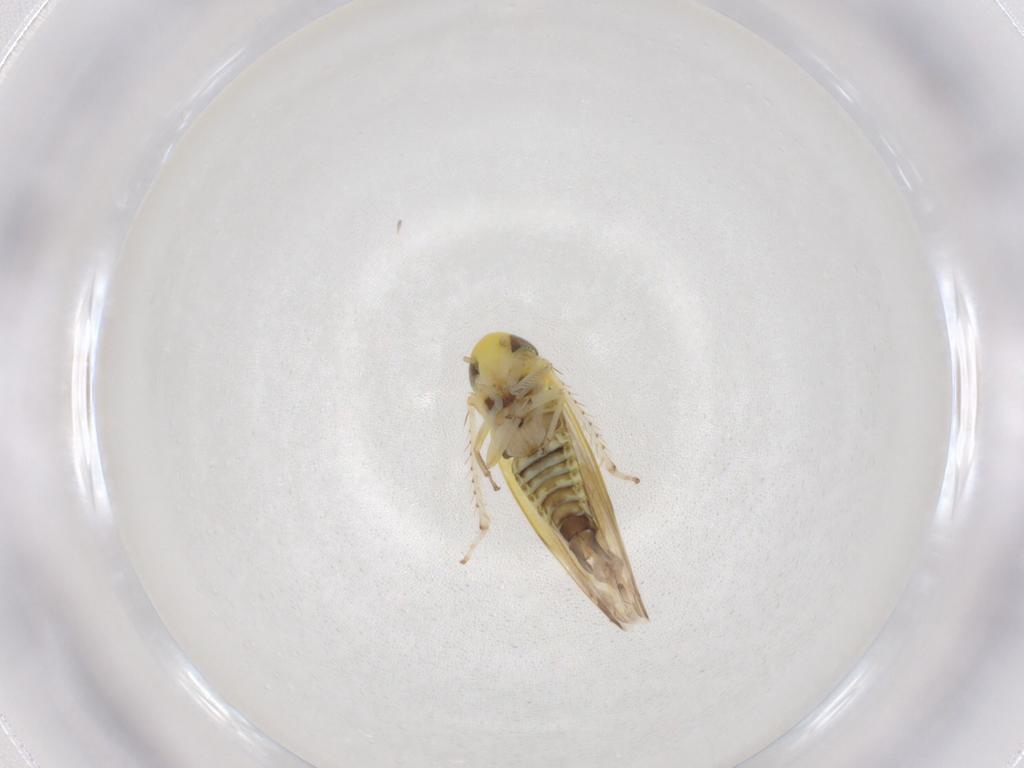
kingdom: Animalia
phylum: Arthropoda
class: Insecta
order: Hemiptera
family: Cicadellidae
